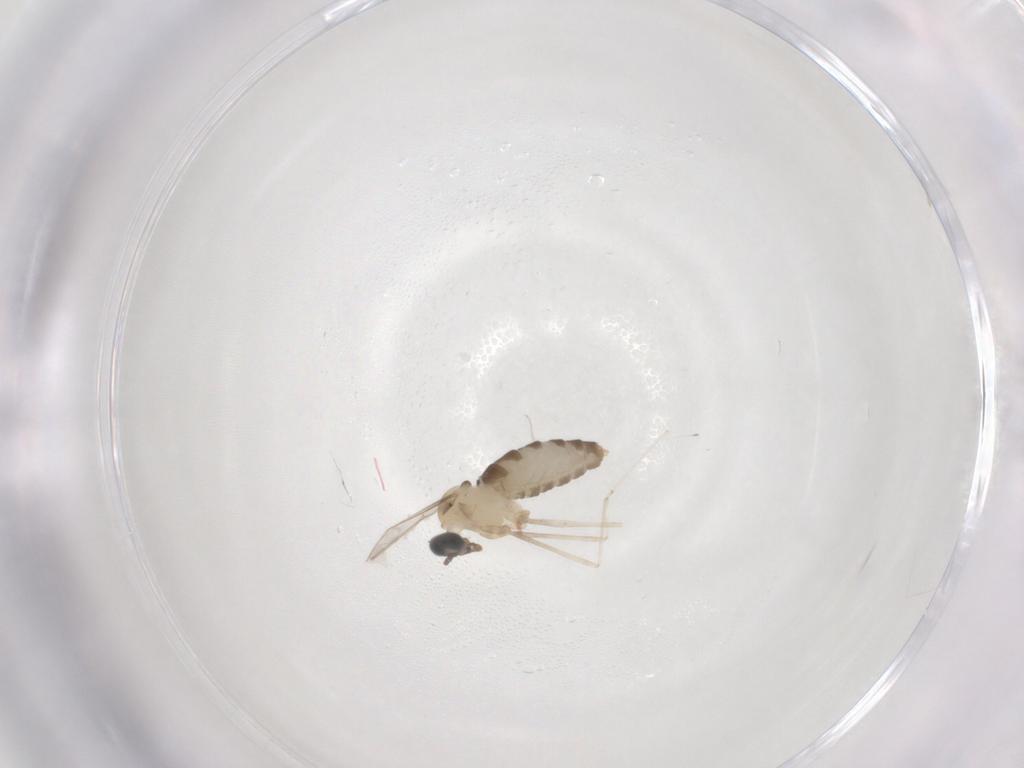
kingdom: Animalia
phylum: Arthropoda
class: Insecta
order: Diptera
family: Cecidomyiidae
